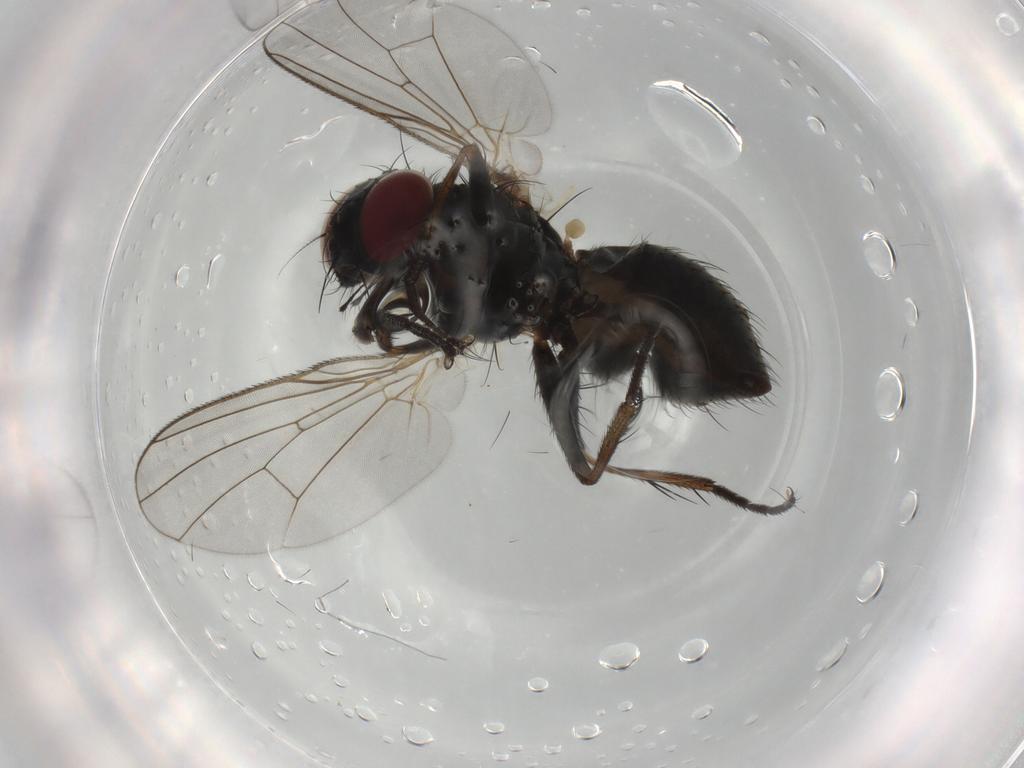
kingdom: Animalia
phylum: Arthropoda
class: Insecta
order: Diptera
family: Muscidae
